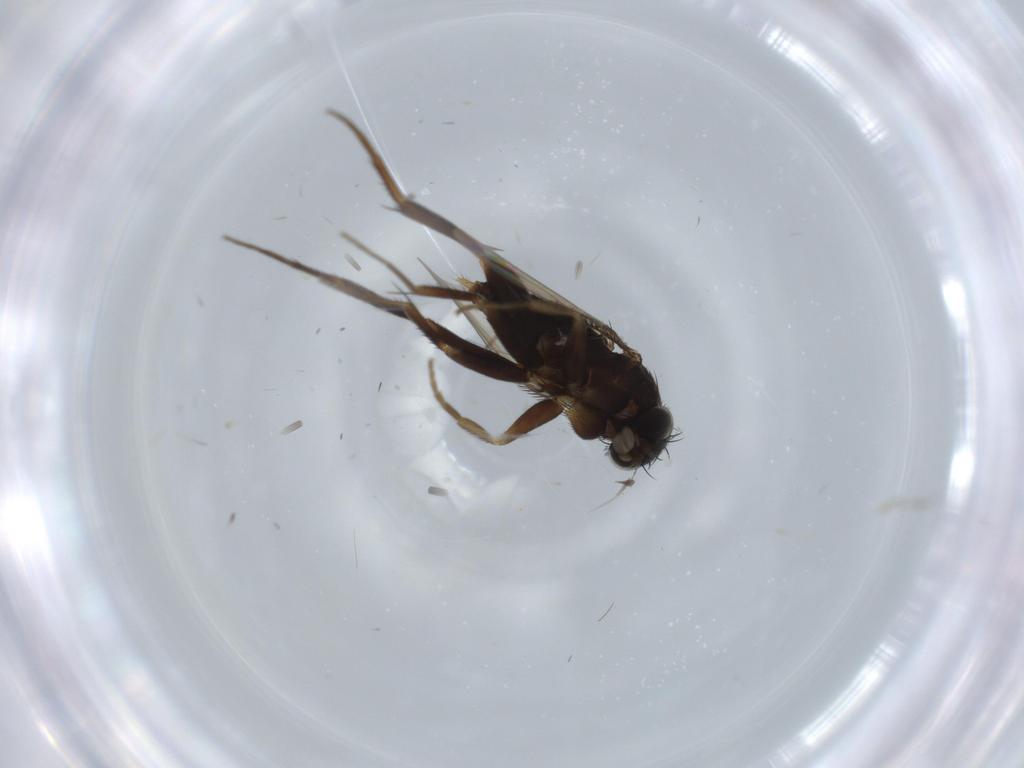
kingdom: Animalia
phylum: Arthropoda
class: Insecta
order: Diptera
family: Phoridae
